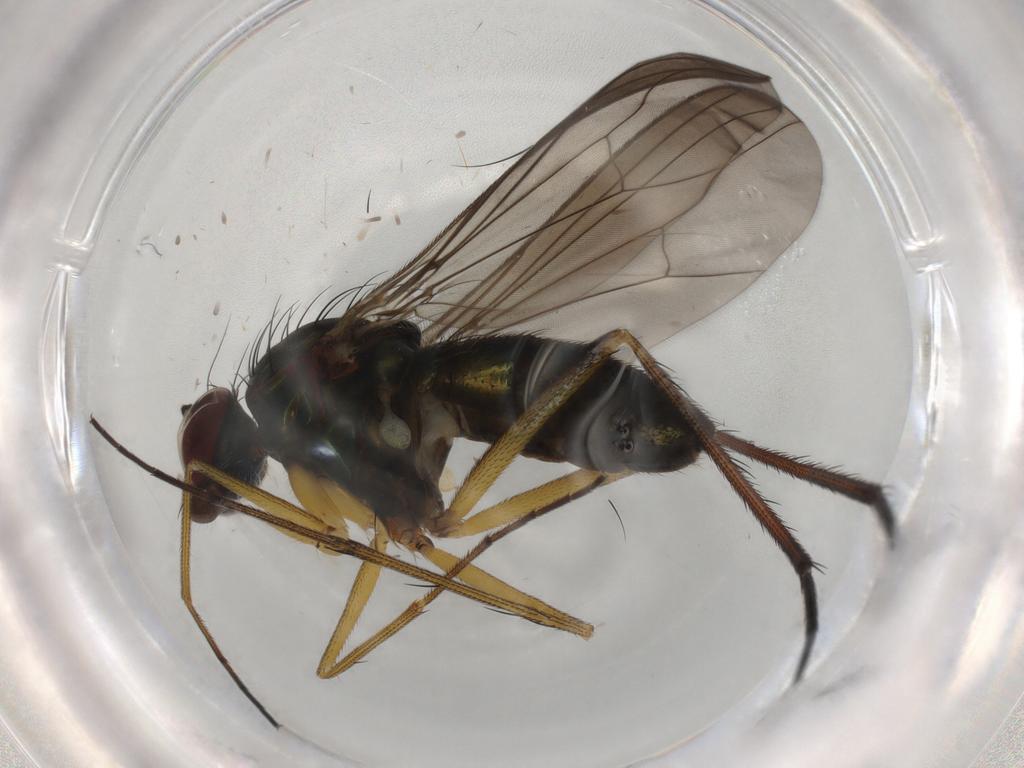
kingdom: Animalia
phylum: Arthropoda
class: Insecta
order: Diptera
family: Dolichopodidae
